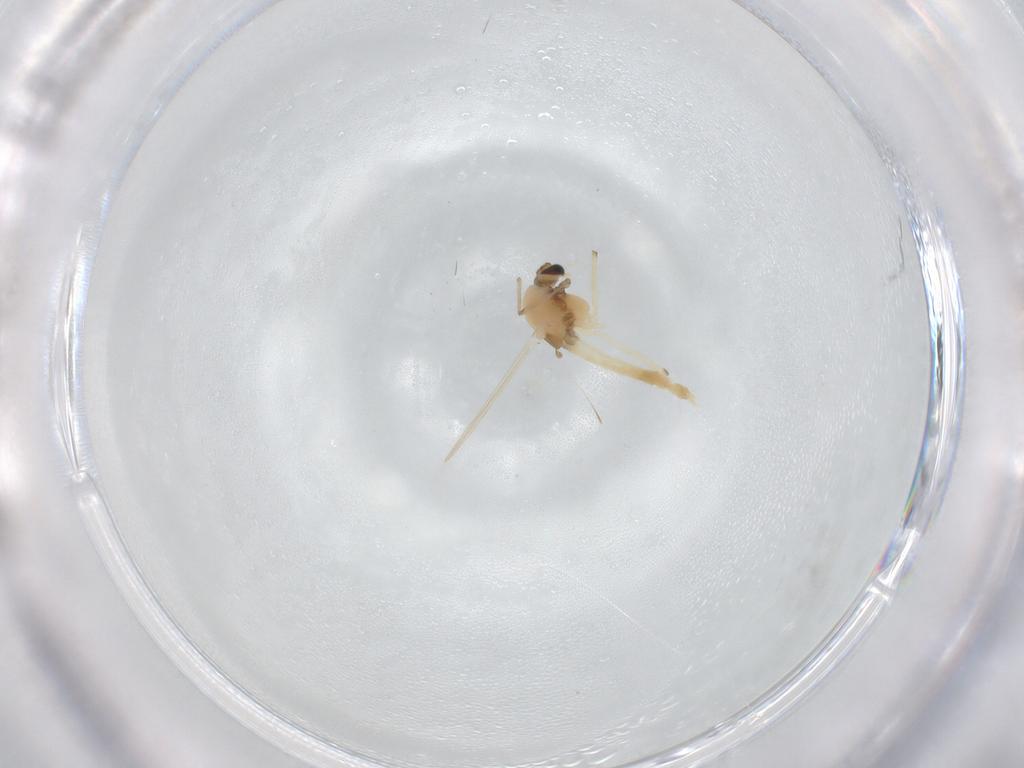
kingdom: Animalia
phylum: Arthropoda
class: Insecta
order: Diptera
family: Chironomidae
